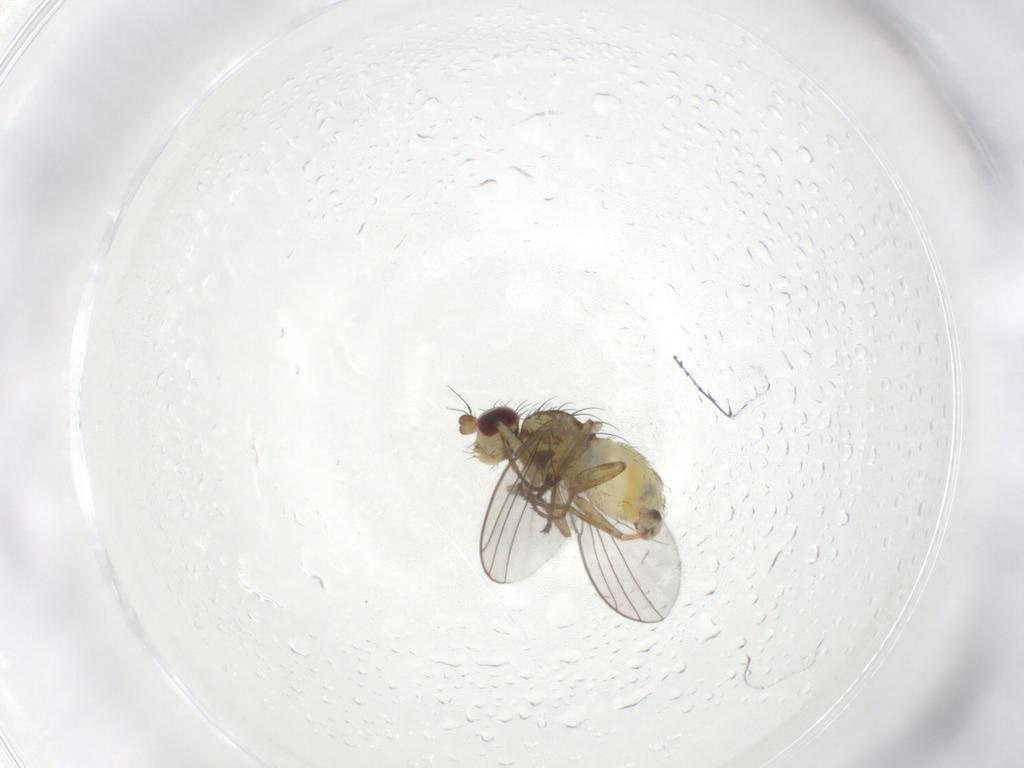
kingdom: Animalia
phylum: Arthropoda
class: Insecta
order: Diptera
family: Agromyzidae
